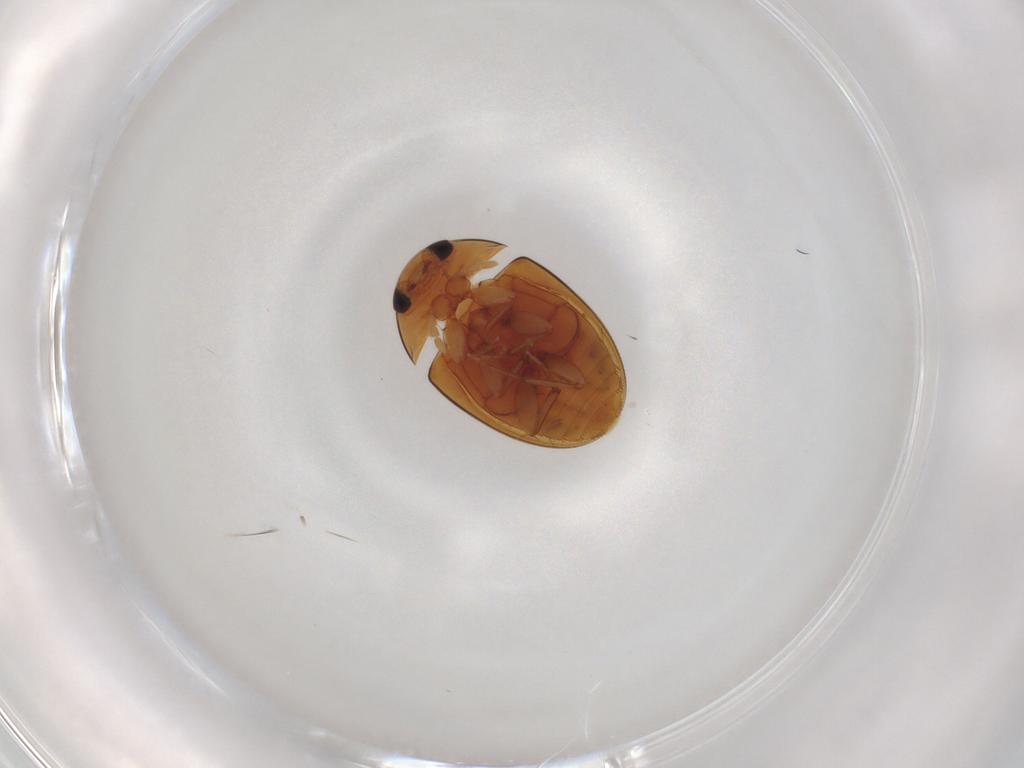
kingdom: Animalia
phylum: Arthropoda
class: Insecta
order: Coleoptera
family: Phalacridae
